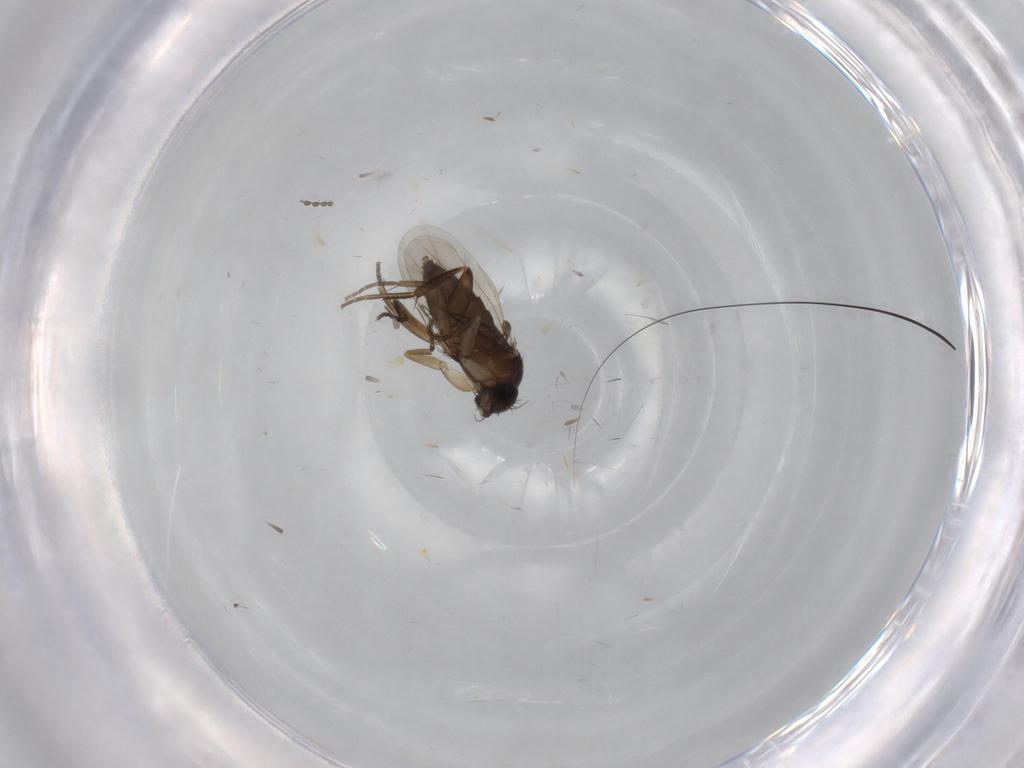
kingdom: Animalia
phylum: Arthropoda
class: Insecta
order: Diptera
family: Phoridae
